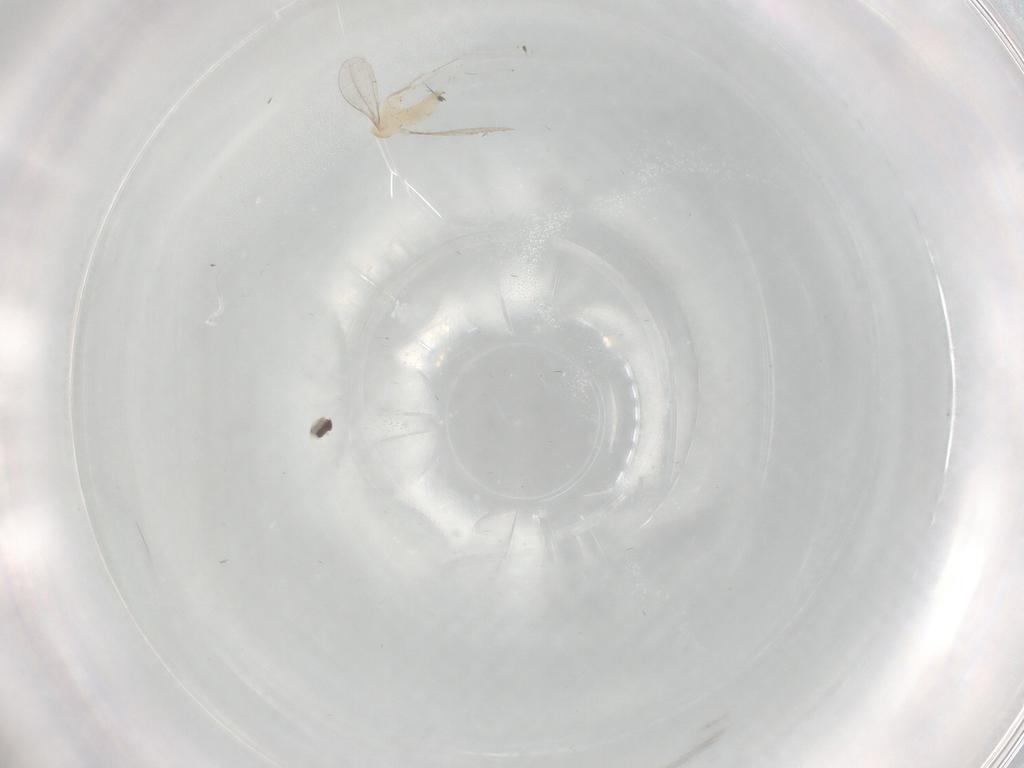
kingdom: Animalia
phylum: Arthropoda
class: Insecta
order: Diptera
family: Cecidomyiidae
